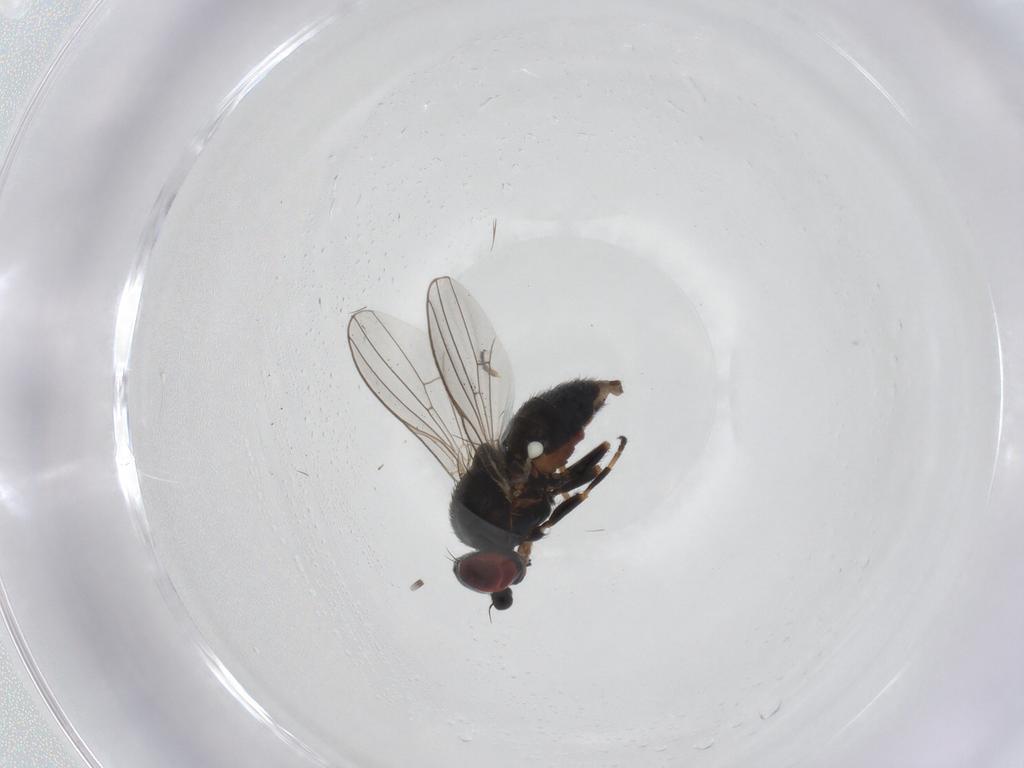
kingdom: Animalia
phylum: Arthropoda
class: Insecta
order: Diptera
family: Chamaemyiidae
